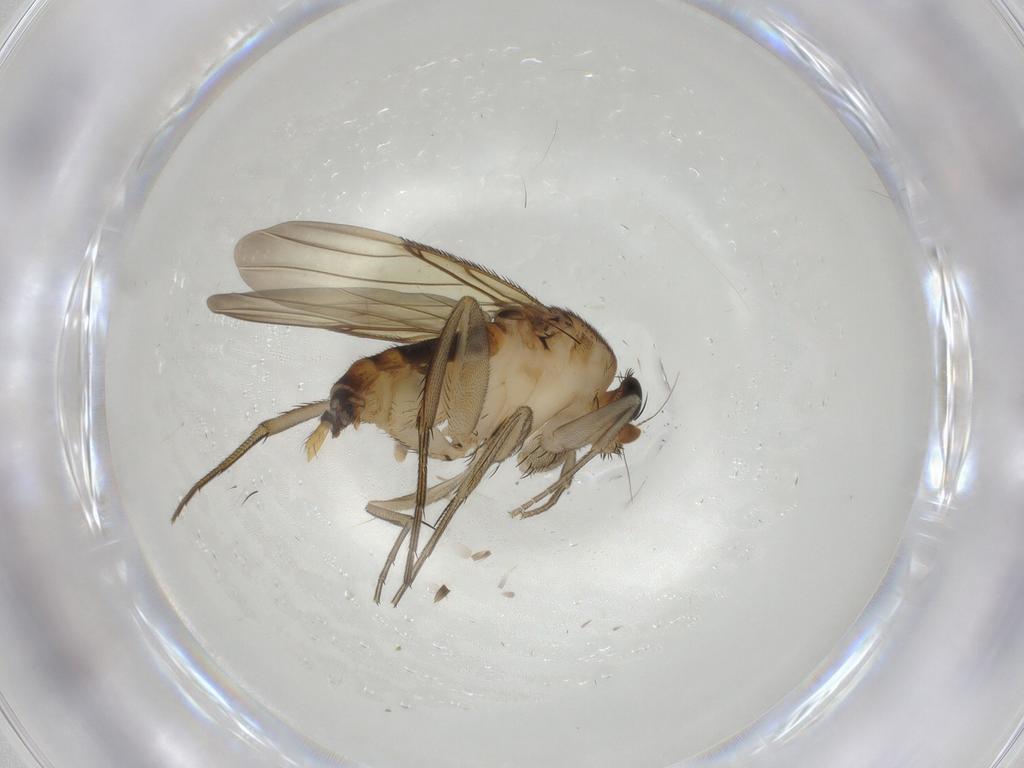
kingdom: Animalia
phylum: Arthropoda
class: Insecta
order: Diptera
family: Phoridae
